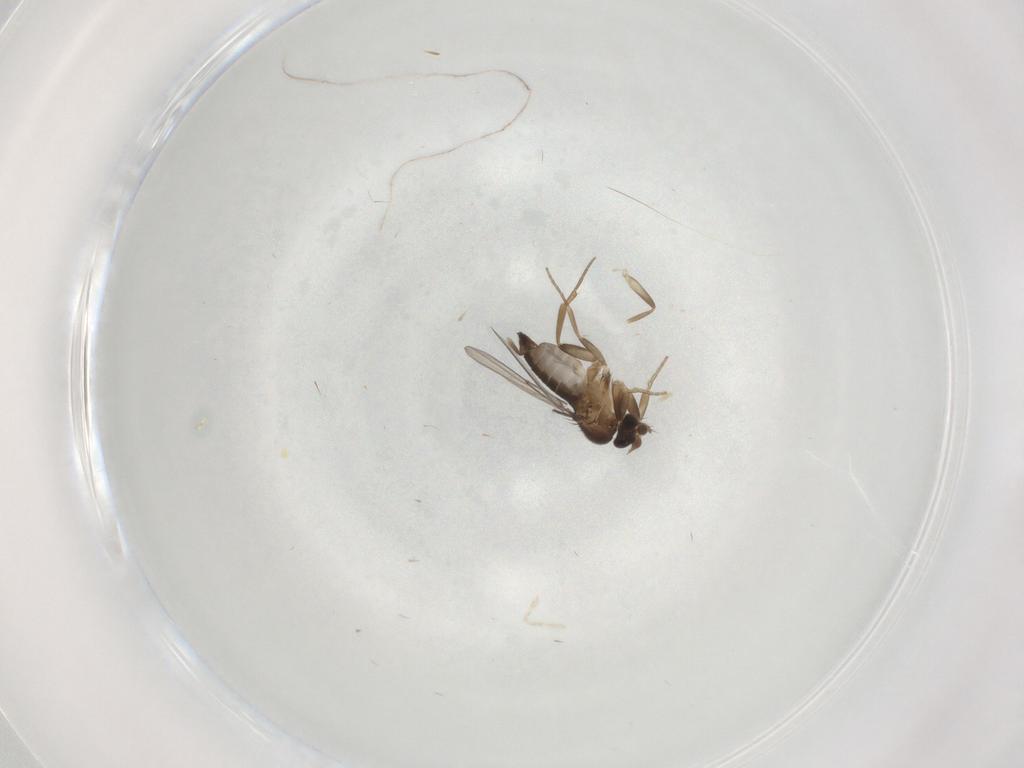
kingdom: Animalia
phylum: Arthropoda
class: Insecta
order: Diptera
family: Phoridae
